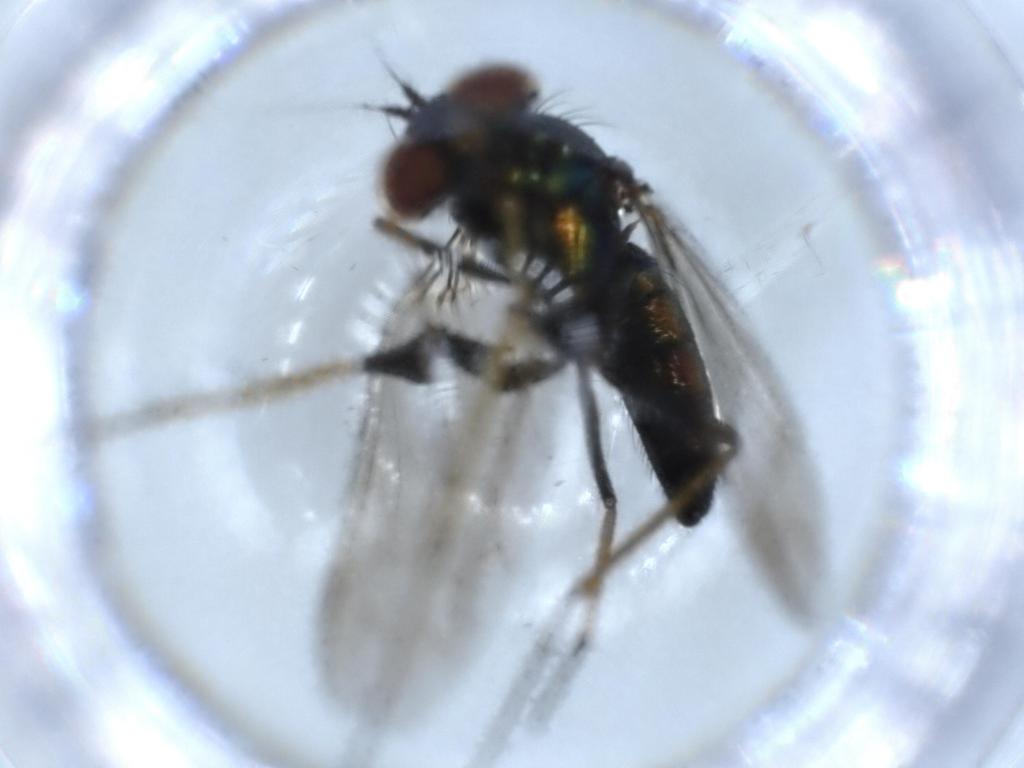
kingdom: Animalia
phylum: Arthropoda
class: Insecta
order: Diptera
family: Dolichopodidae
